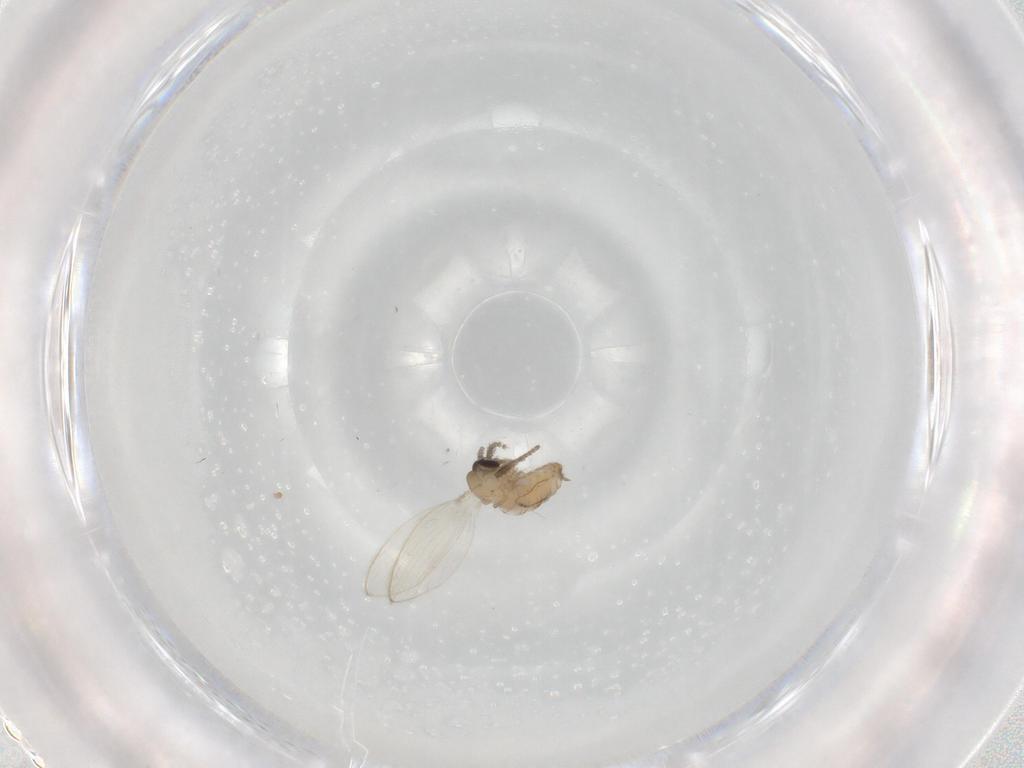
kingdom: Animalia
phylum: Arthropoda
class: Insecta
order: Diptera
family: Psychodidae
